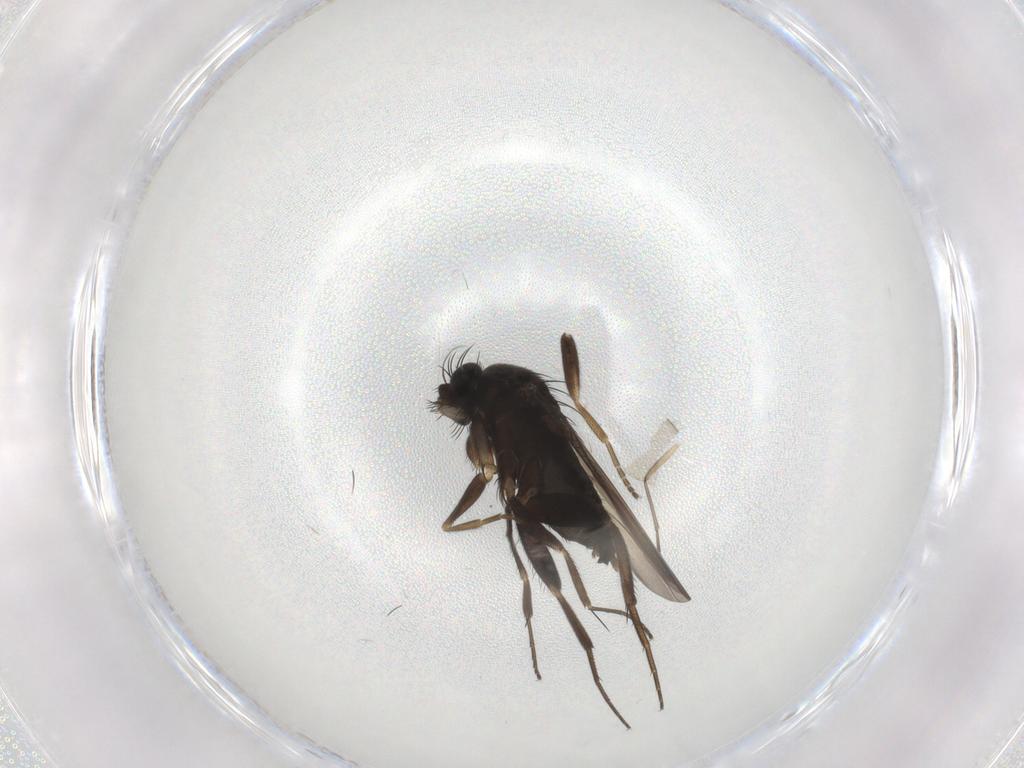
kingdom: Animalia
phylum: Arthropoda
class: Insecta
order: Diptera
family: Phoridae
